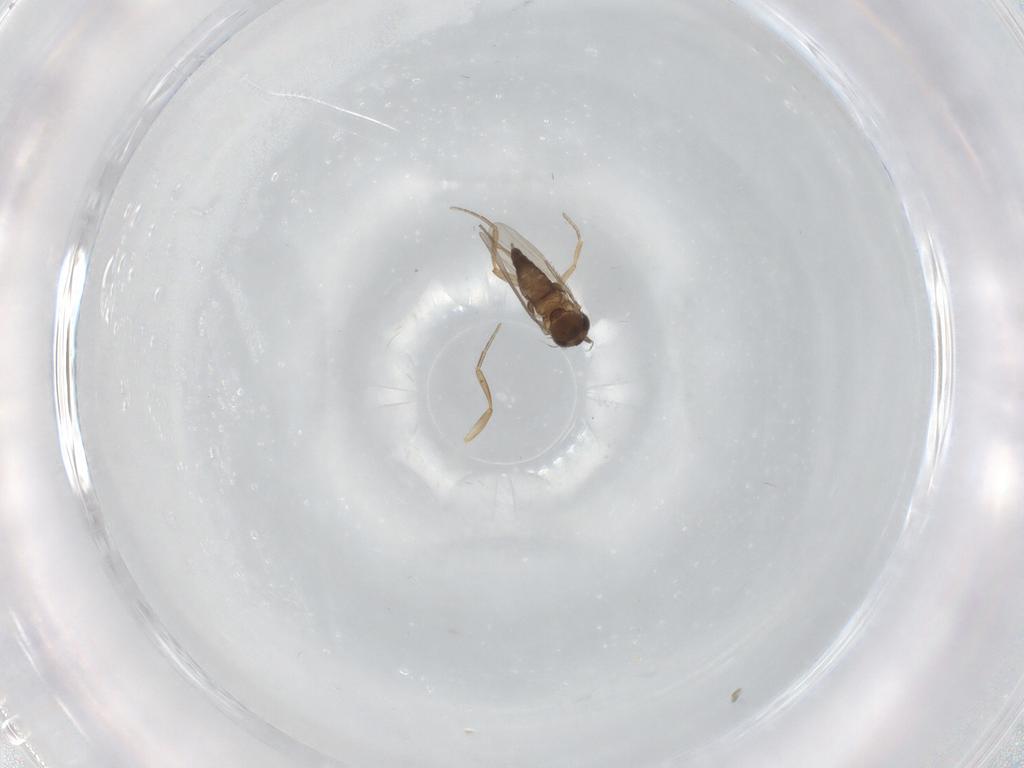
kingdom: Animalia
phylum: Arthropoda
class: Insecta
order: Diptera
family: Phoridae
